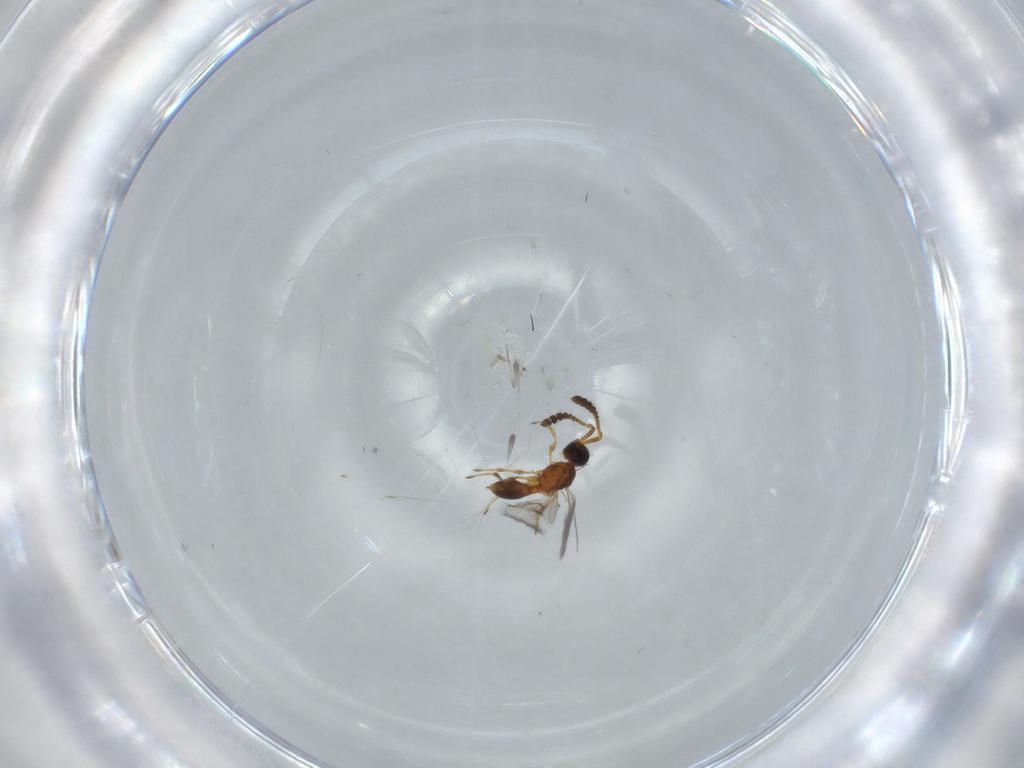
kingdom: Animalia
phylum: Arthropoda
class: Insecta
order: Hymenoptera
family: Diapriidae
